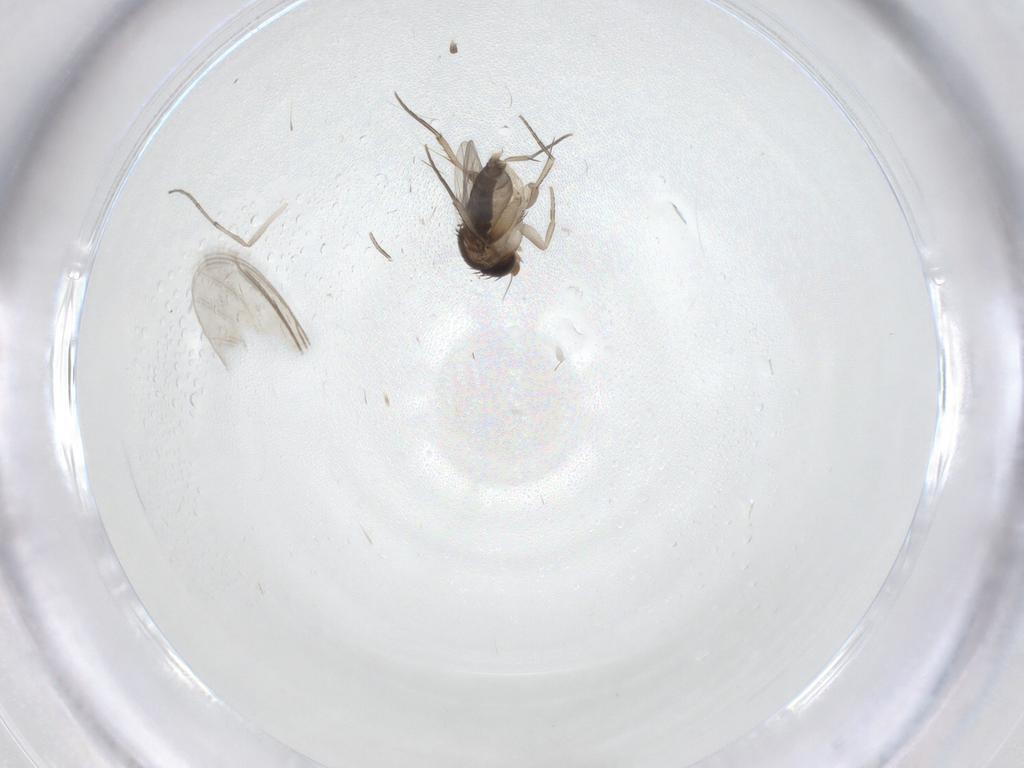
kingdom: Animalia
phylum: Arthropoda
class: Insecta
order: Diptera
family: Phoridae
